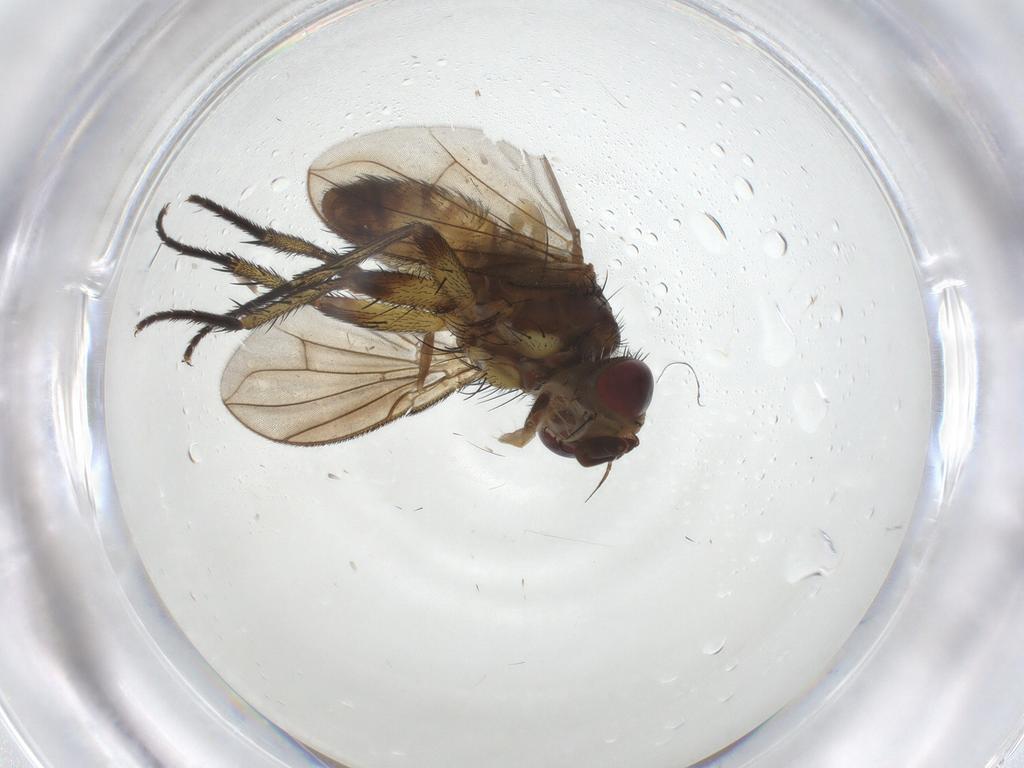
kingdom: Animalia
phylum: Arthropoda
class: Insecta
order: Diptera
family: Tachinidae
